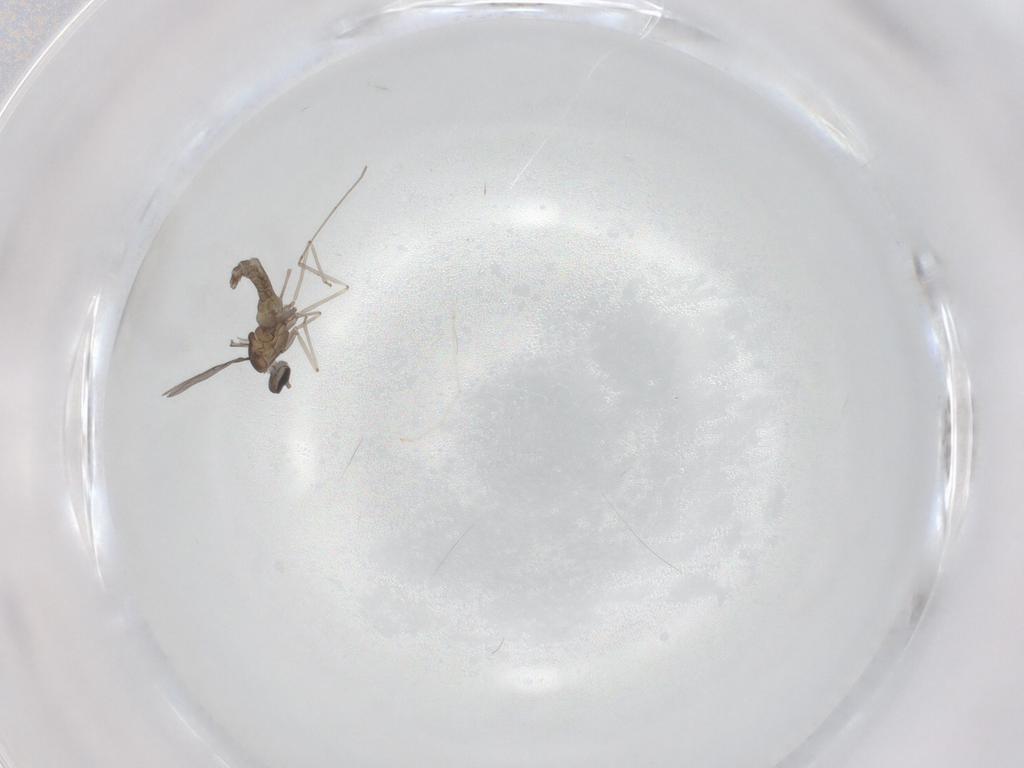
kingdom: Animalia
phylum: Arthropoda
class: Insecta
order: Diptera
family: Cecidomyiidae
